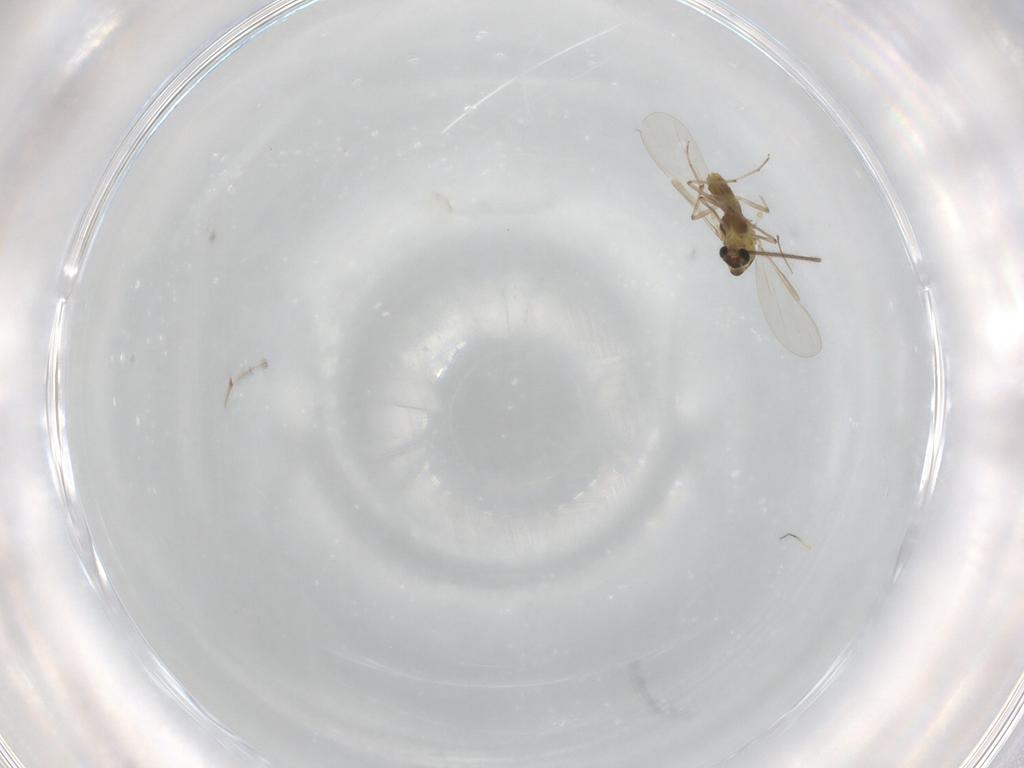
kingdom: Animalia
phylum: Arthropoda
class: Insecta
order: Diptera
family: Chironomidae
